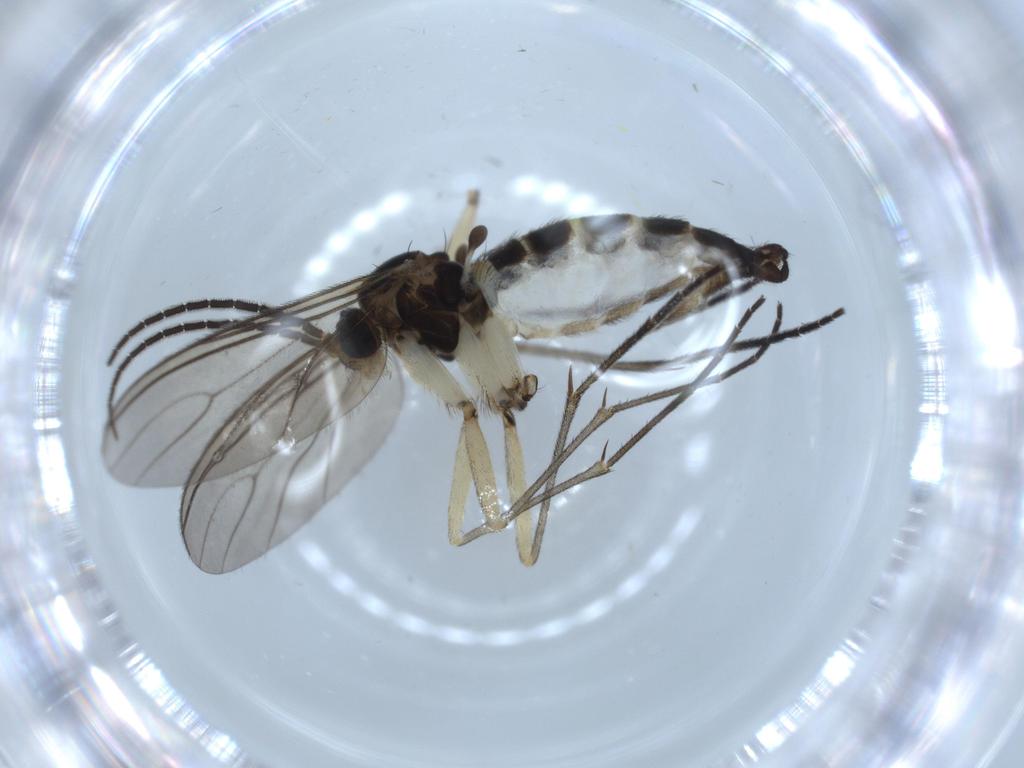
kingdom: Animalia
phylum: Arthropoda
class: Insecta
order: Diptera
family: Sciaridae
